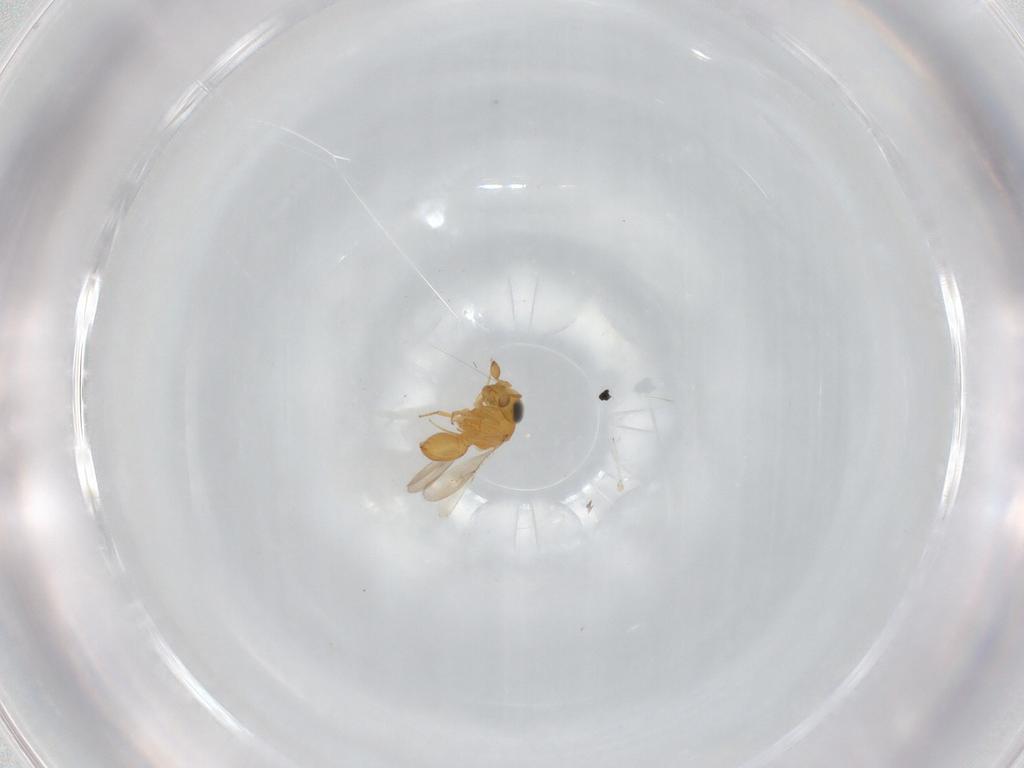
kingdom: Animalia
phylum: Arthropoda
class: Insecta
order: Hymenoptera
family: Scelionidae
